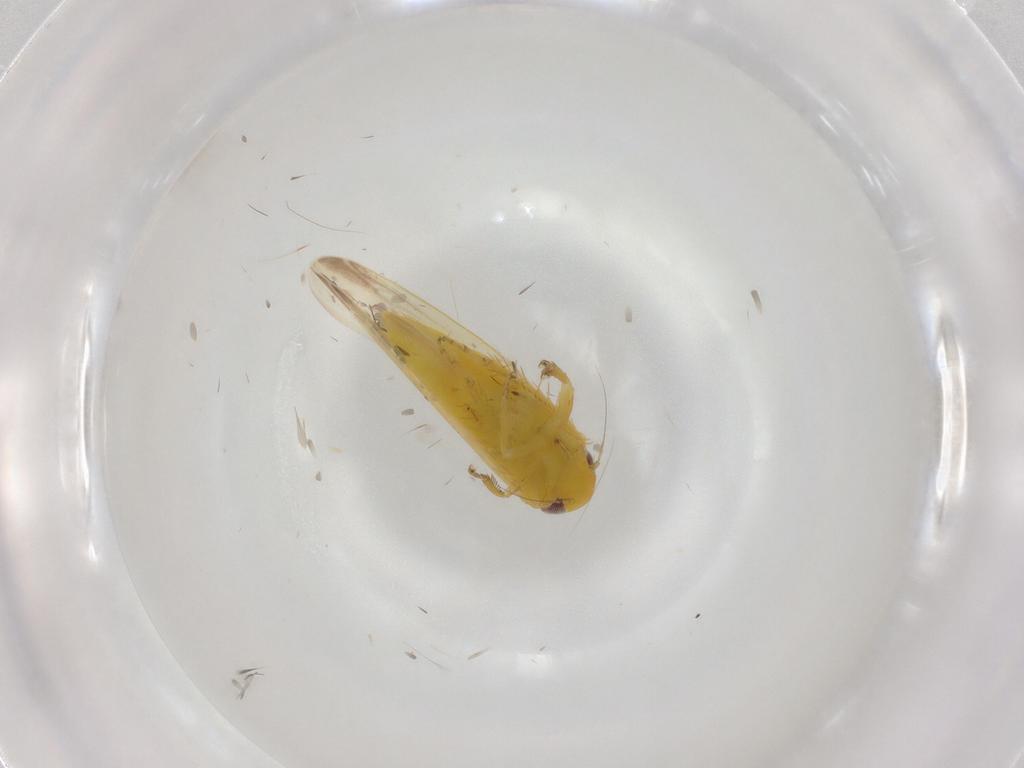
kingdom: Animalia
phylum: Arthropoda
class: Insecta
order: Hemiptera
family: Cicadellidae
